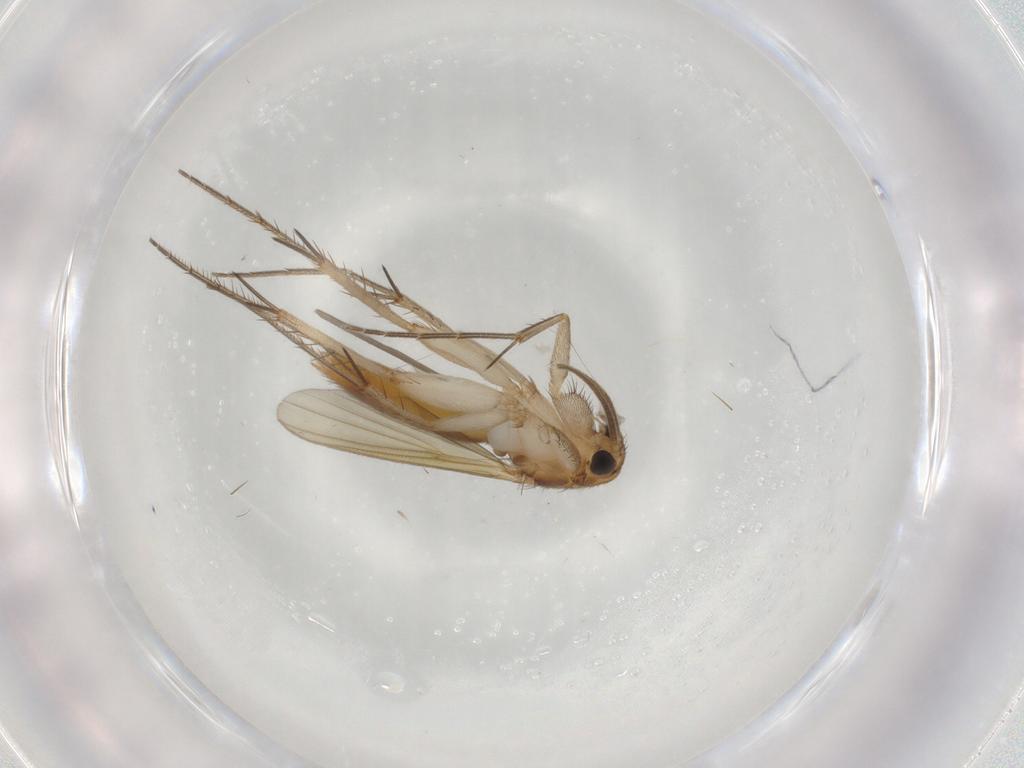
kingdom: Animalia
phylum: Arthropoda
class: Insecta
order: Diptera
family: Mycetophilidae
